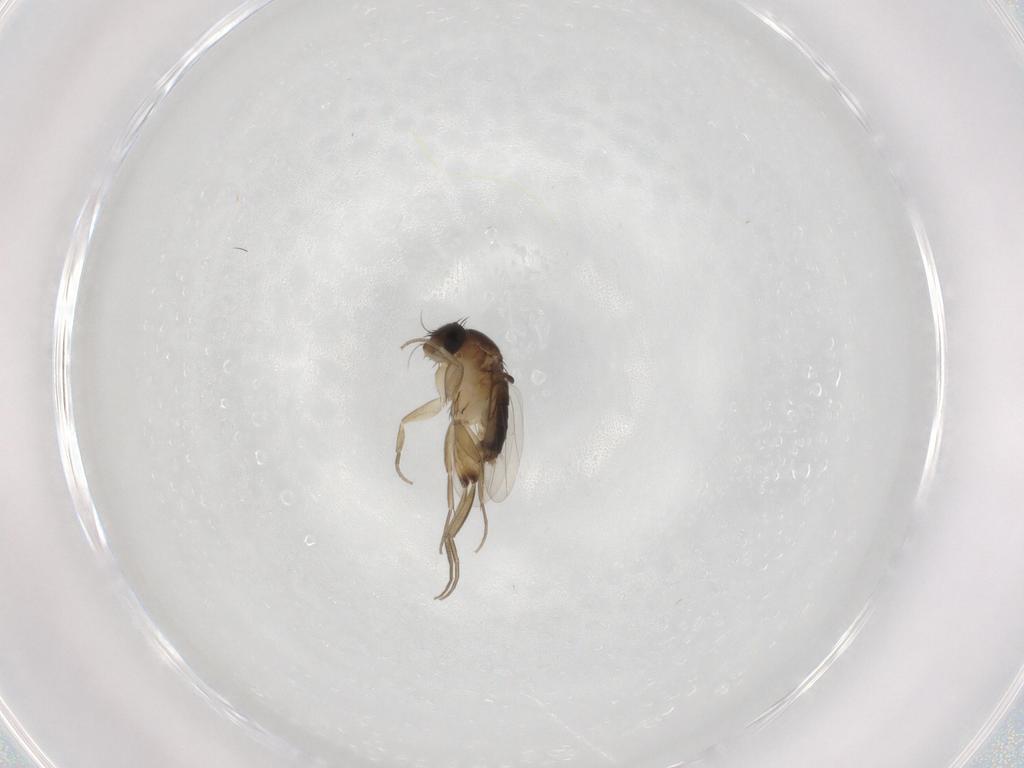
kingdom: Animalia
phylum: Arthropoda
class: Insecta
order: Diptera
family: Phoridae
